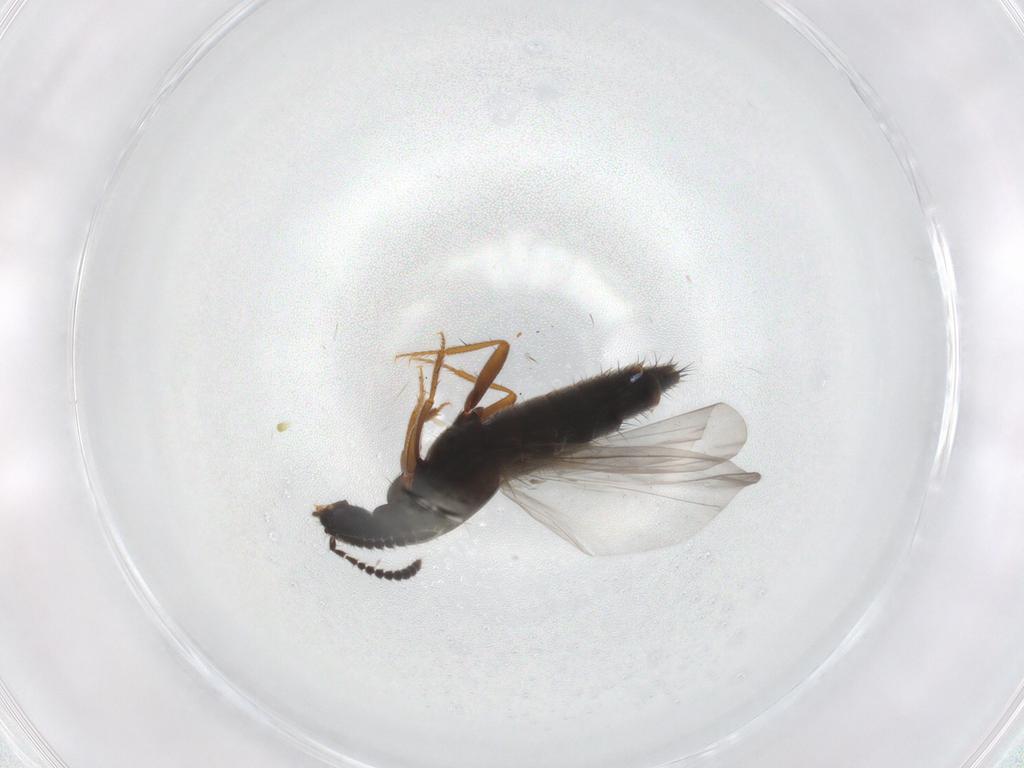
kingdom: Animalia
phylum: Arthropoda
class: Insecta
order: Coleoptera
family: Staphylinidae
